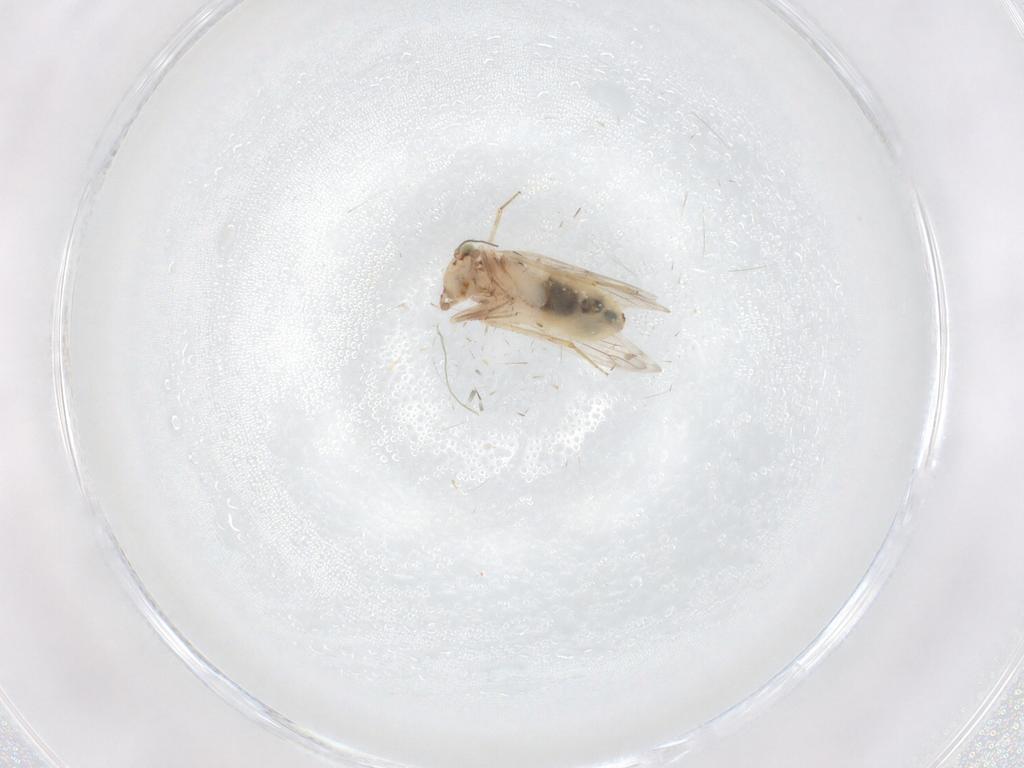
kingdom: Animalia
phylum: Arthropoda
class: Insecta
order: Psocodea
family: Lepidopsocidae
